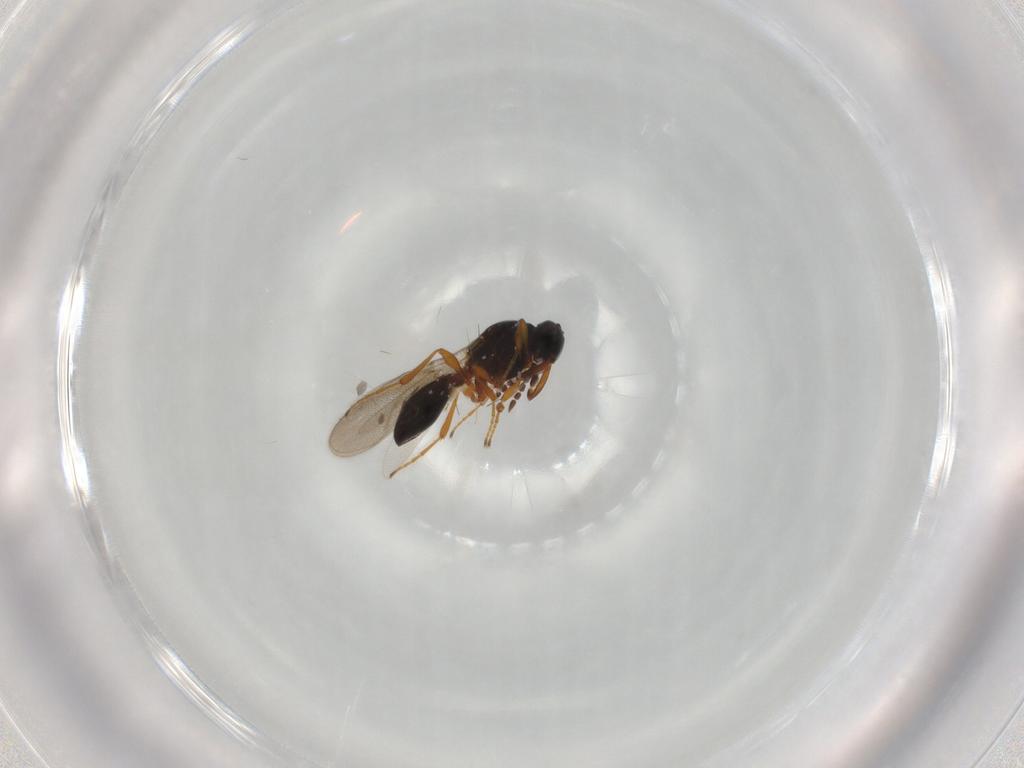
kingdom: Animalia
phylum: Arthropoda
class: Insecta
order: Hymenoptera
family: Platygastridae
